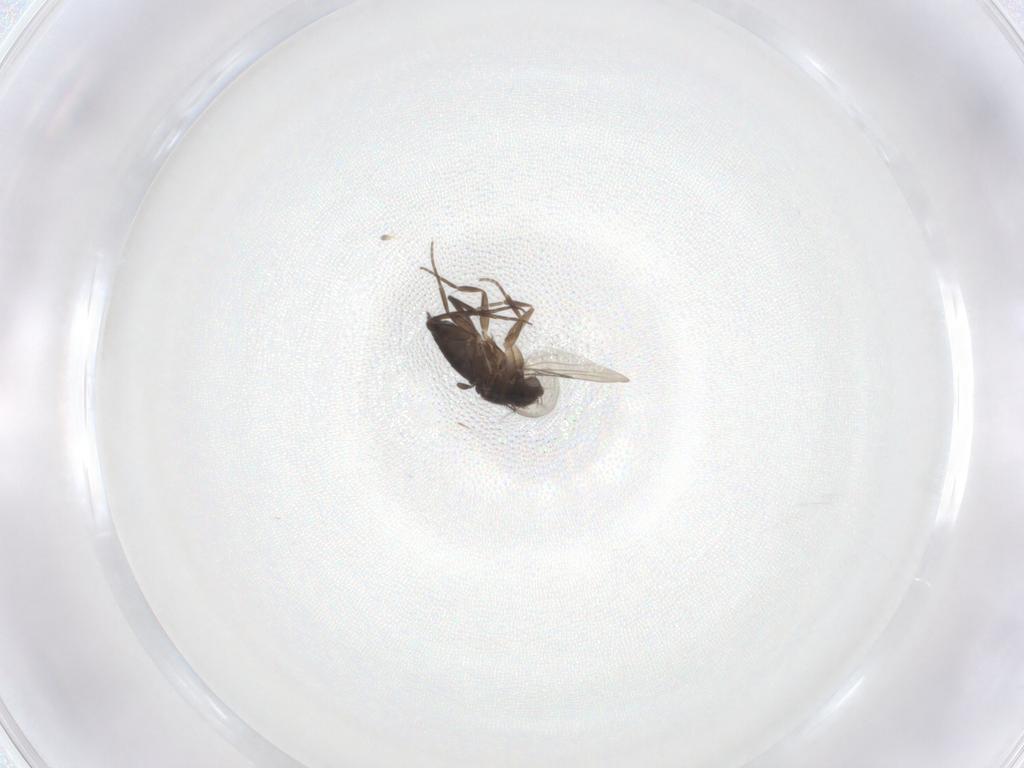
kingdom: Animalia
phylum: Arthropoda
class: Insecta
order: Diptera
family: Phoridae
